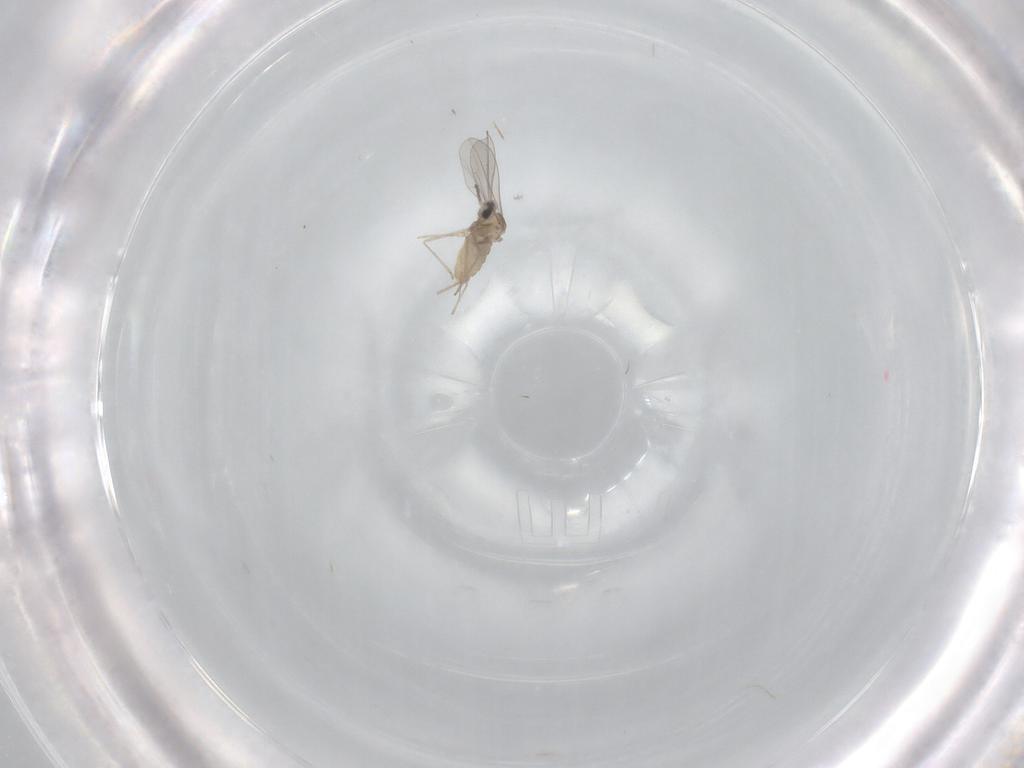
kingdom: Animalia
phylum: Arthropoda
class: Insecta
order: Diptera
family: Cecidomyiidae
